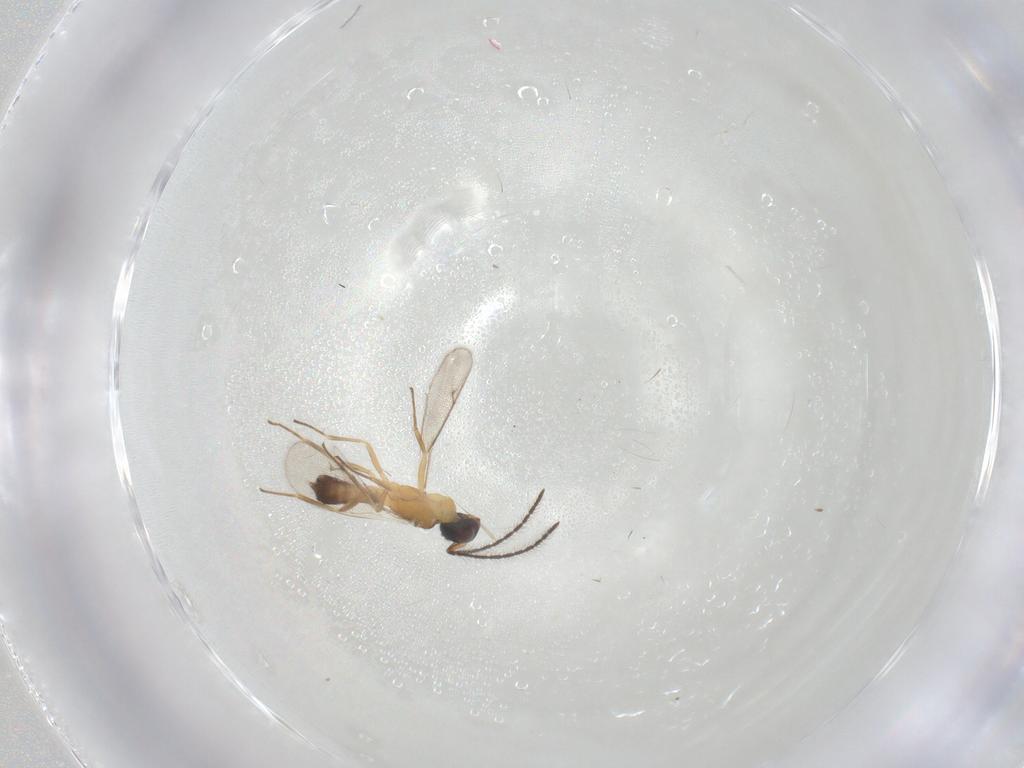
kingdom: Animalia
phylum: Arthropoda
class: Insecta
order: Hymenoptera
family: Eupelmidae
